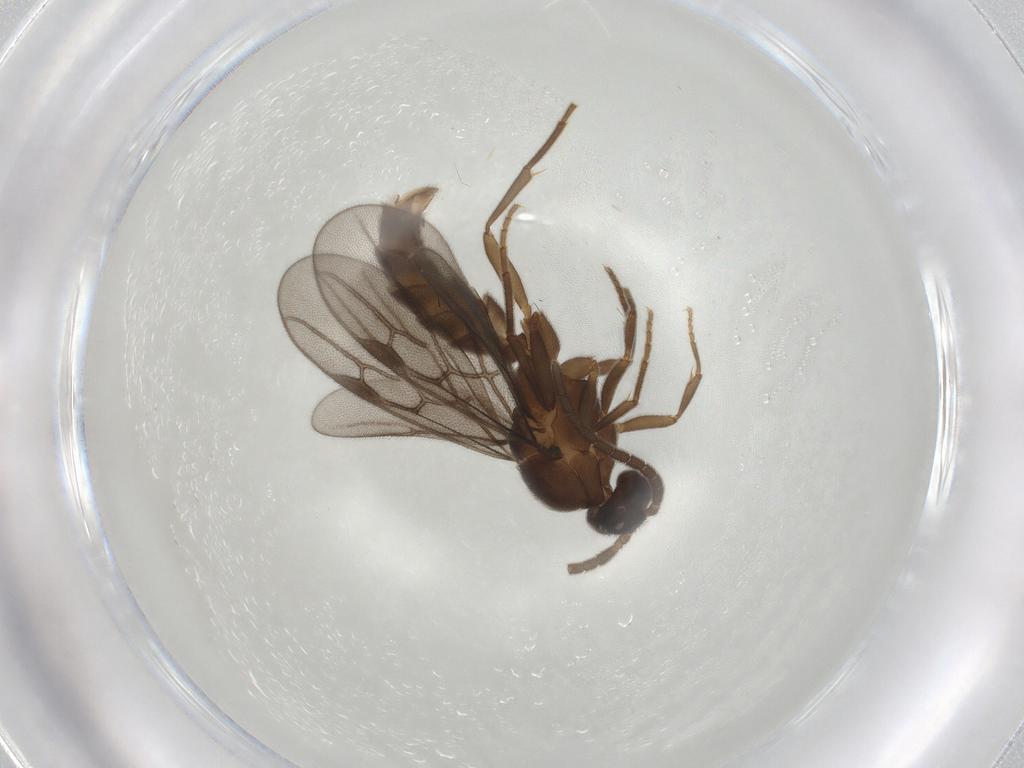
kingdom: Animalia
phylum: Arthropoda
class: Insecta
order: Hymenoptera
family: Formicidae
